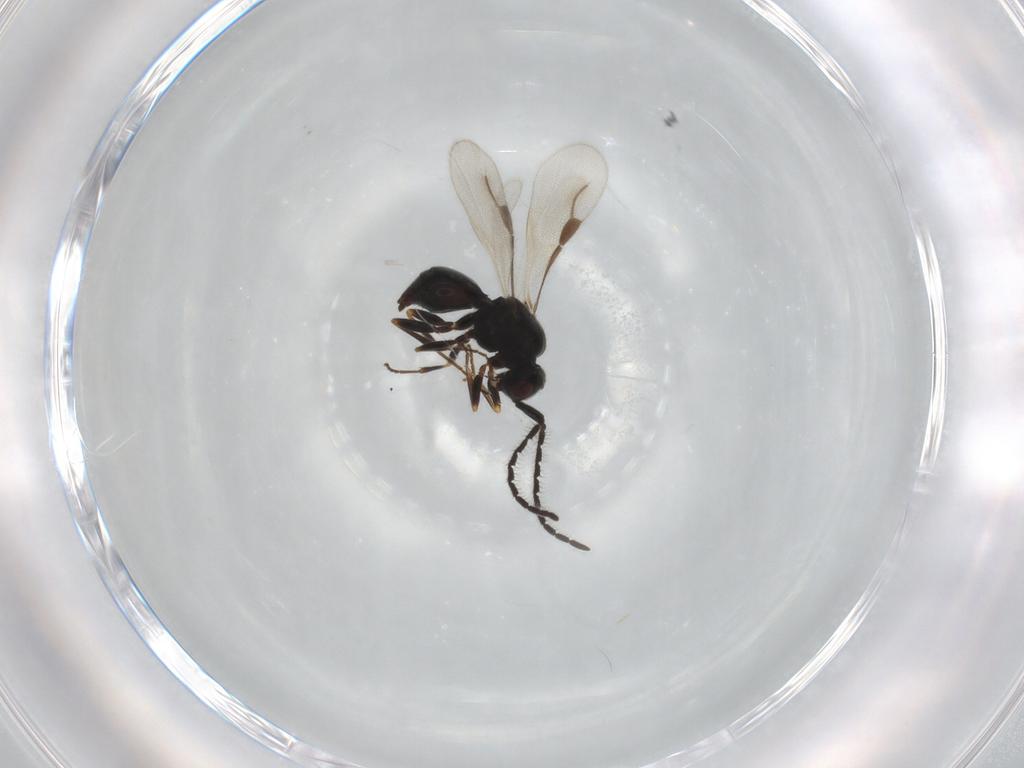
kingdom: Animalia
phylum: Arthropoda
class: Insecta
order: Hymenoptera
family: Megaspilidae
